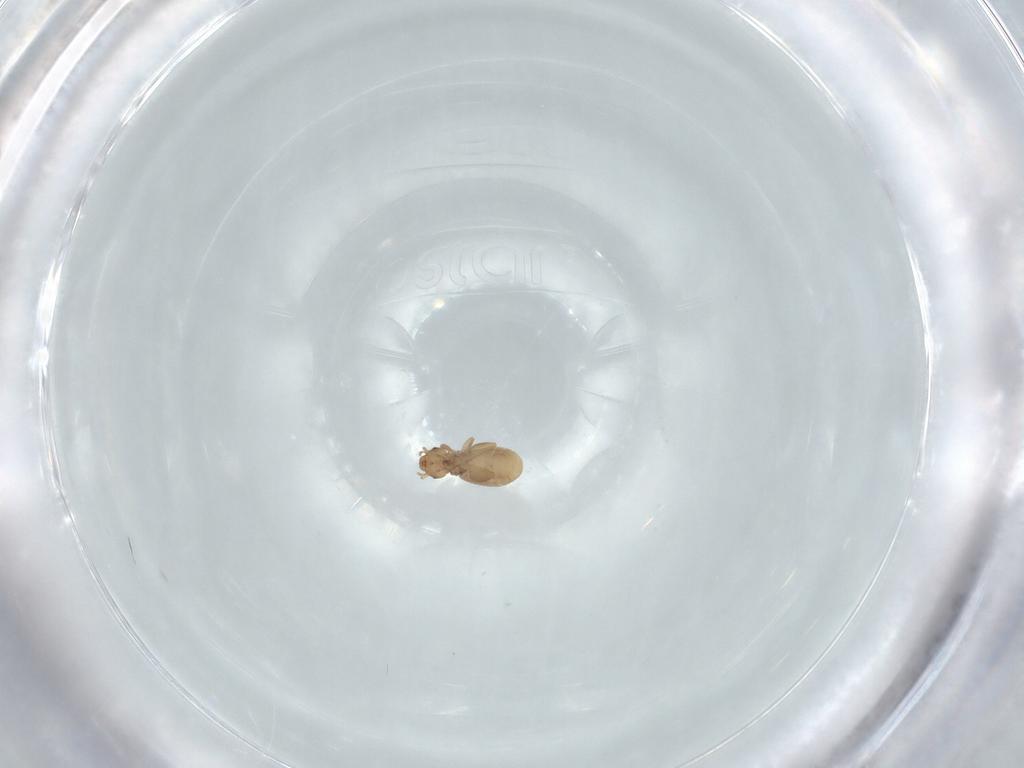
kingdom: Animalia
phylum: Arthropoda
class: Insecta
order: Psocodea
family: Liposcelididae
